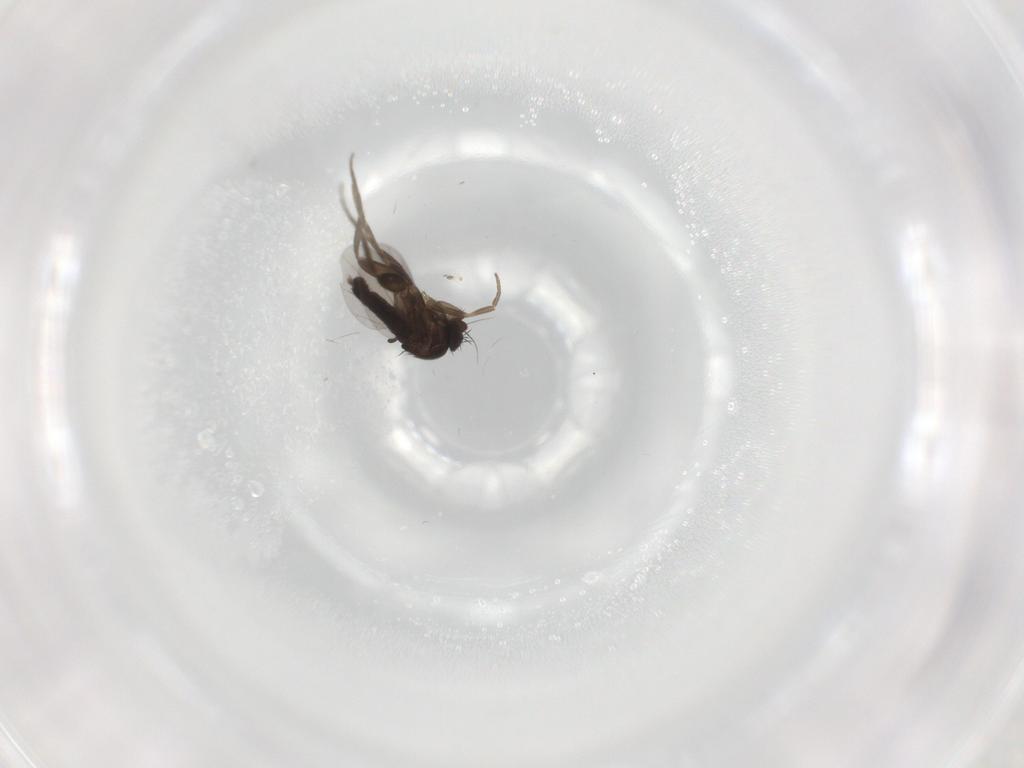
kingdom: Animalia
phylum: Arthropoda
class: Insecta
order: Diptera
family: Phoridae
